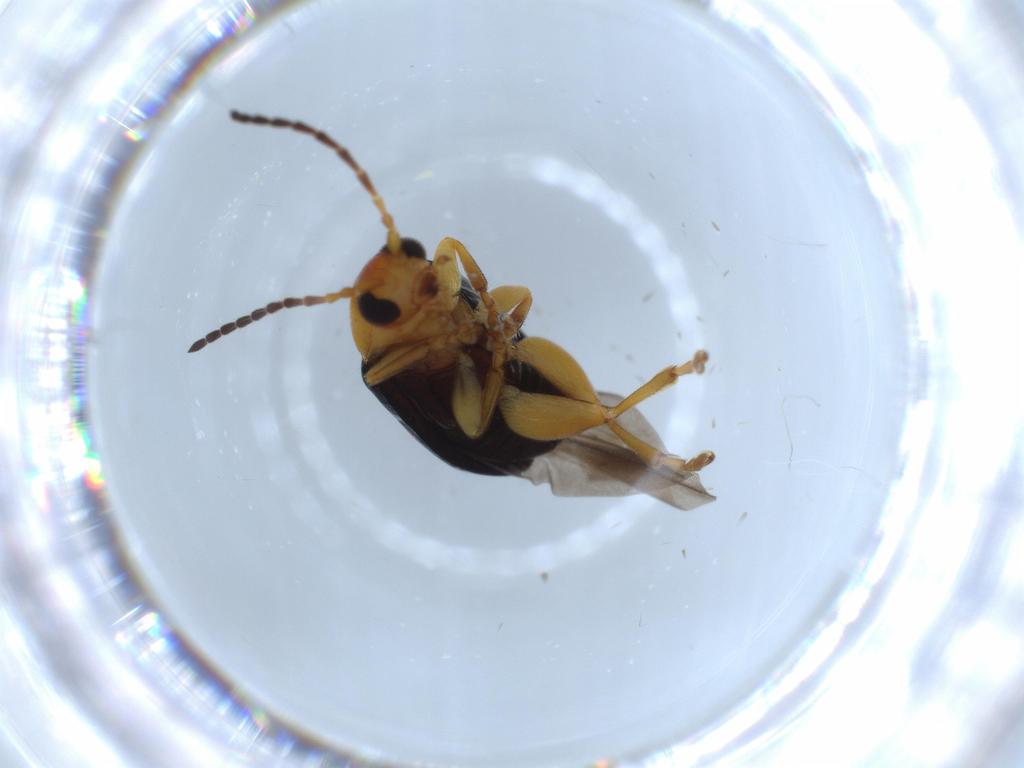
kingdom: Animalia
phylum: Arthropoda
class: Insecta
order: Coleoptera
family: Chrysomelidae
